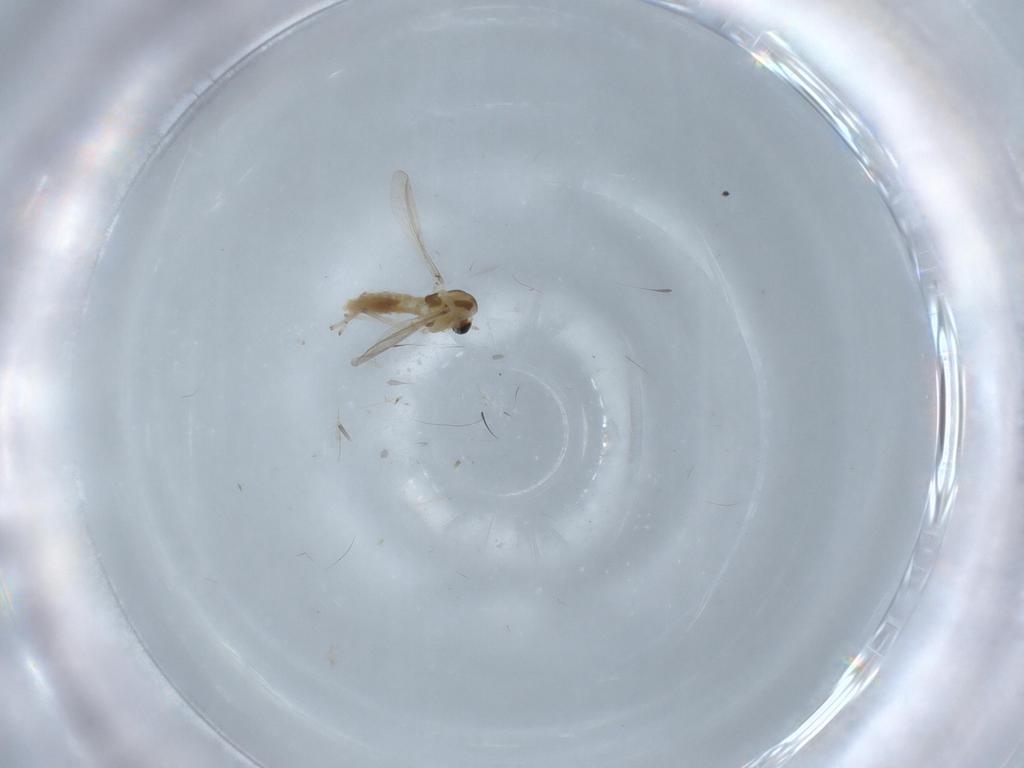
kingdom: Animalia
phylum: Arthropoda
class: Insecta
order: Diptera
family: Chironomidae
